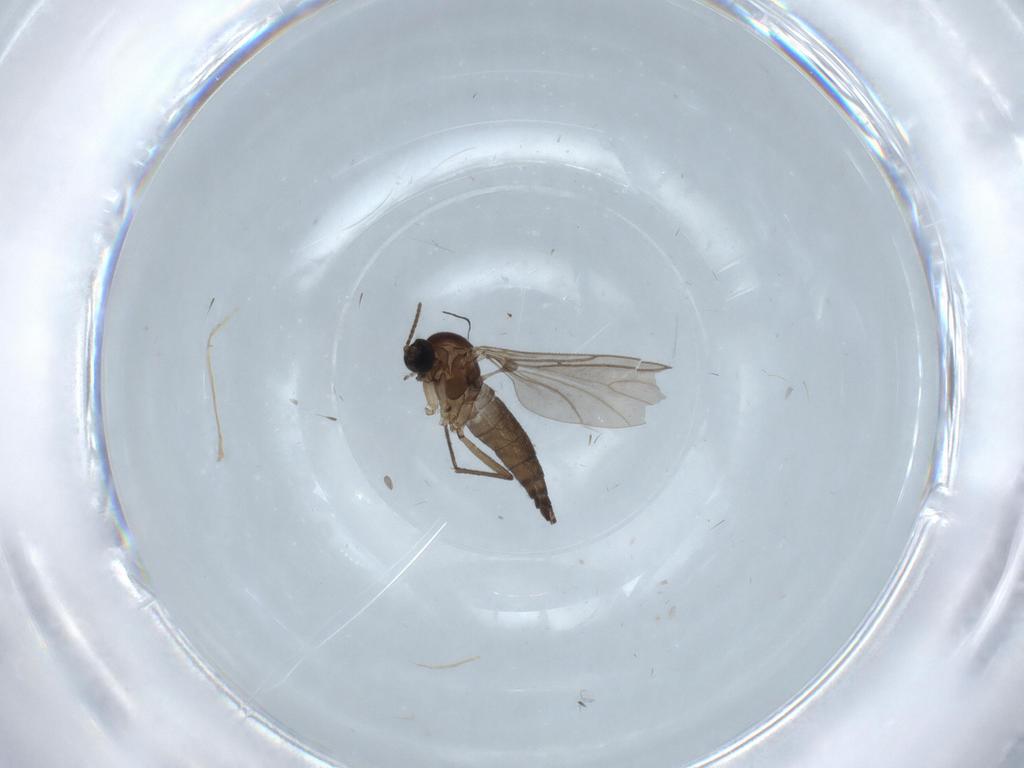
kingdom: Animalia
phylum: Arthropoda
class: Insecta
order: Diptera
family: Sciaridae
